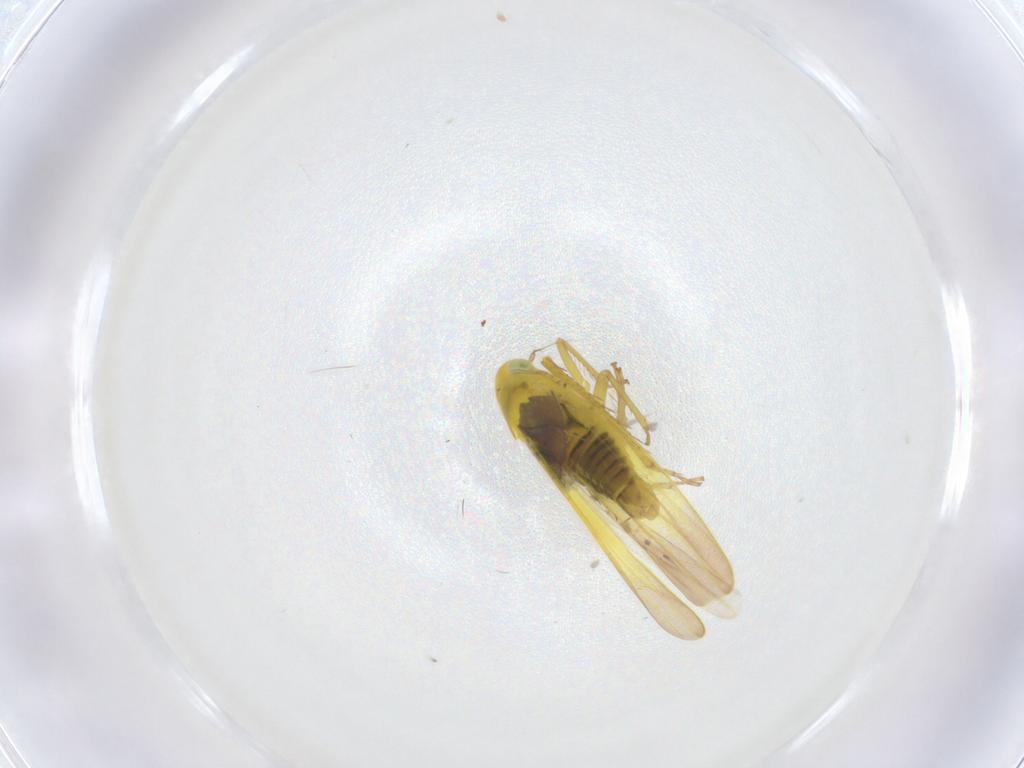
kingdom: Animalia
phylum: Arthropoda
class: Insecta
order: Hemiptera
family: Cicadellidae
